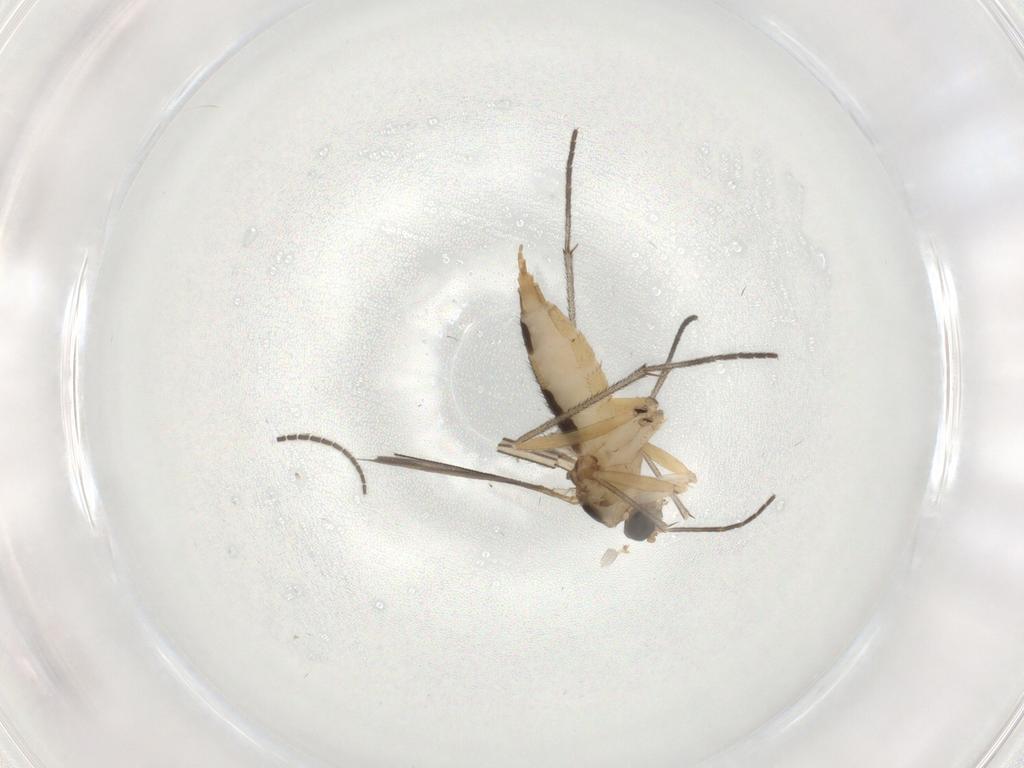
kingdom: Animalia
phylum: Arthropoda
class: Insecta
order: Diptera
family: Sciaridae
